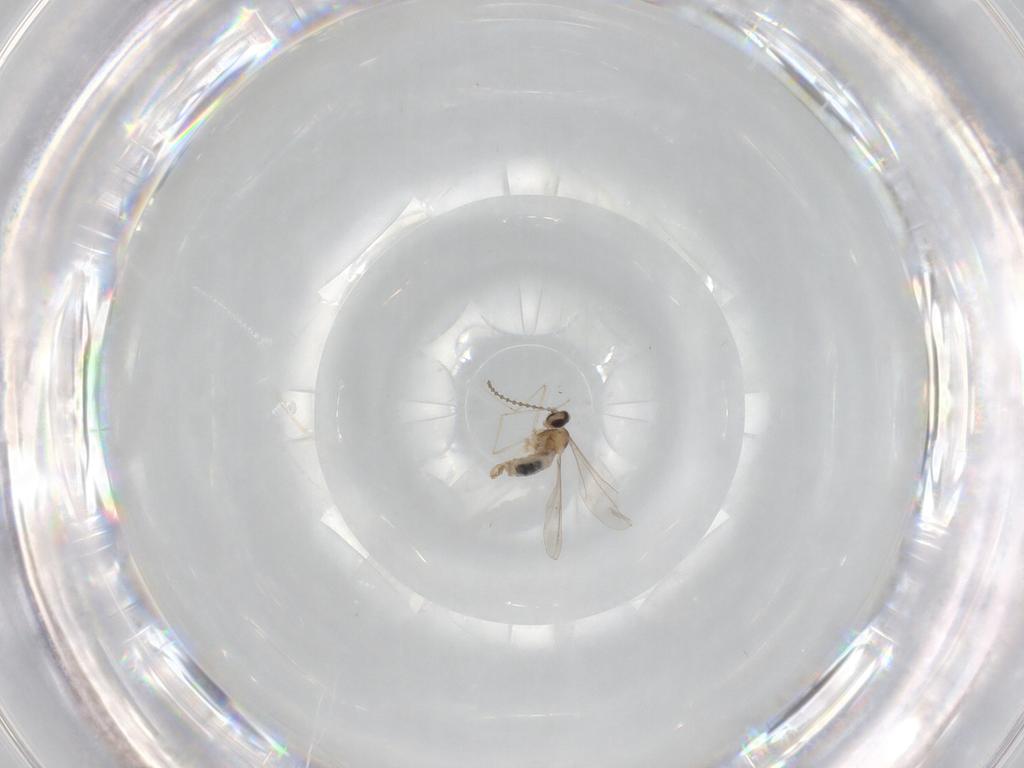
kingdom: Animalia
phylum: Arthropoda
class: Insecta
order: Diptera
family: Cecidomyiidae
